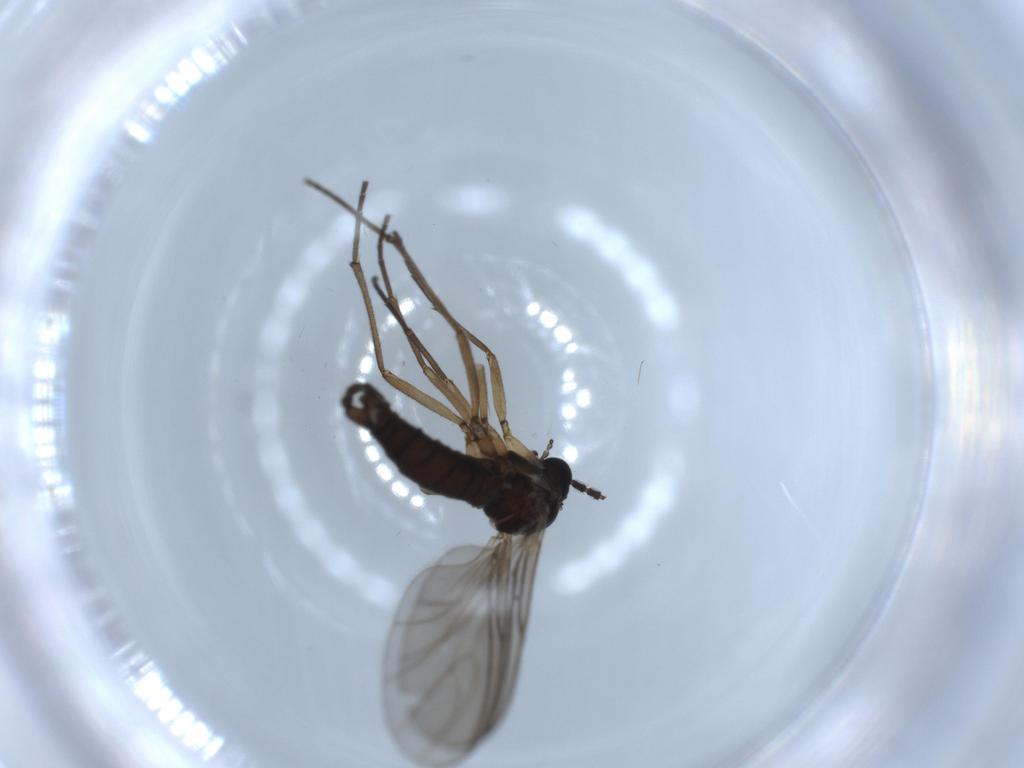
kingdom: Animalia
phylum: Arthropoda
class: Insecta
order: Diptera
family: Sciaridae
